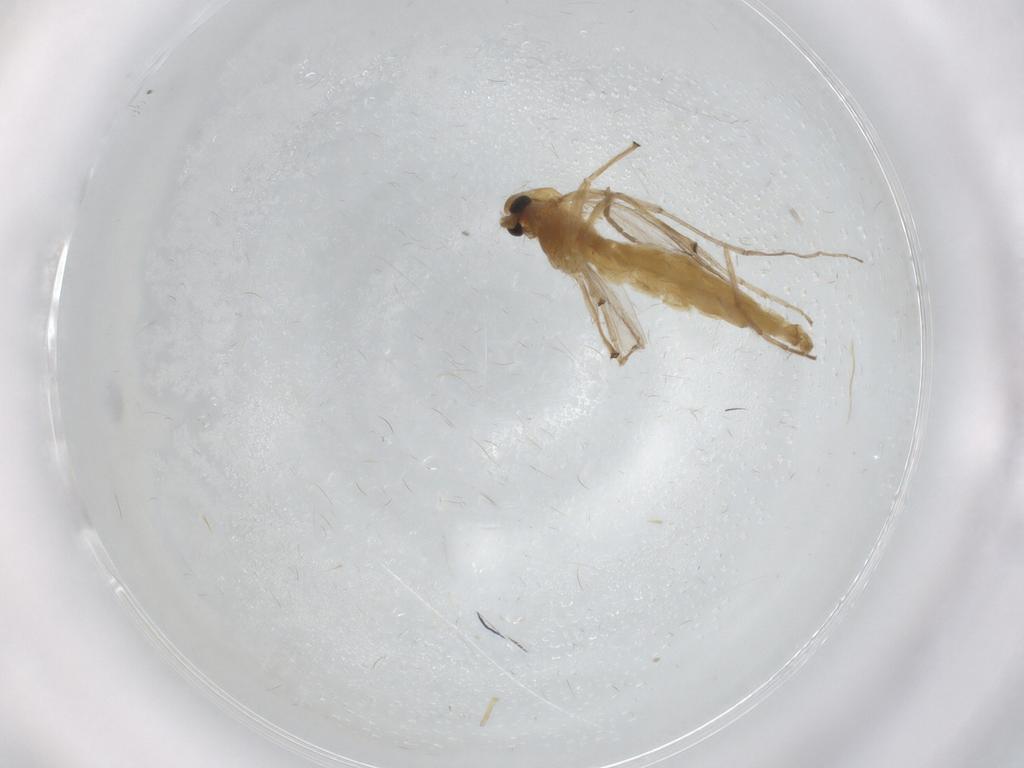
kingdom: Animalia
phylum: Arthropoda
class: Insecta
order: Diptera
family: Chironomidae
